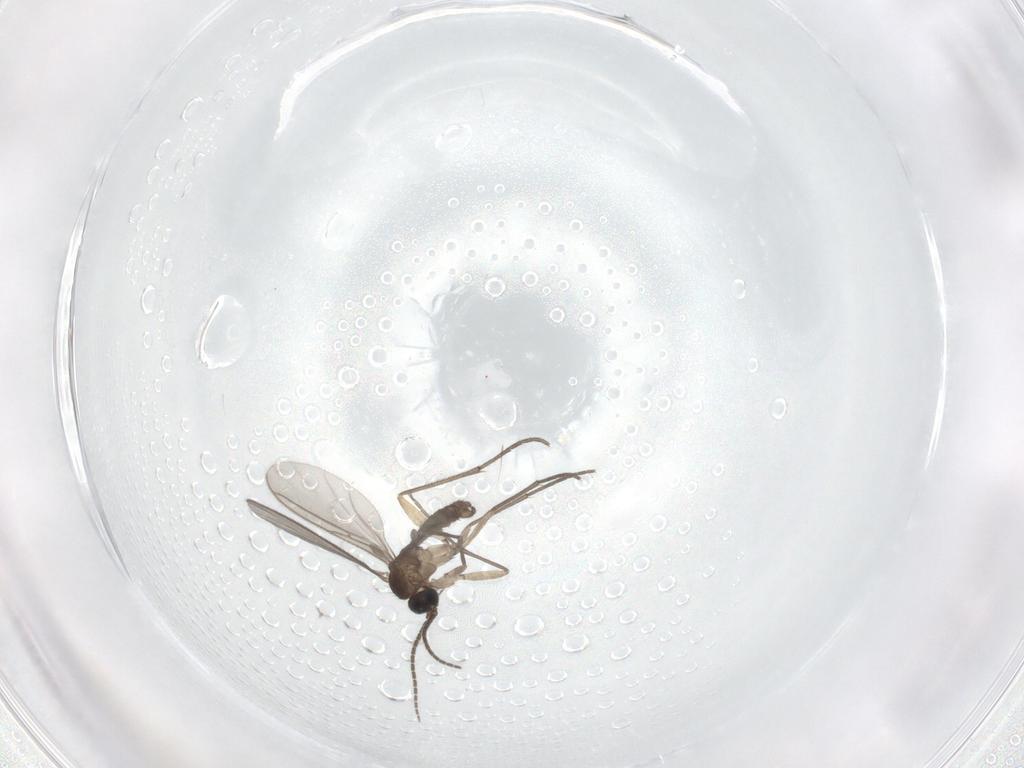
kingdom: Animalia
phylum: Arthropoda
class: Insecta
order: Diptera
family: Sciaridae
